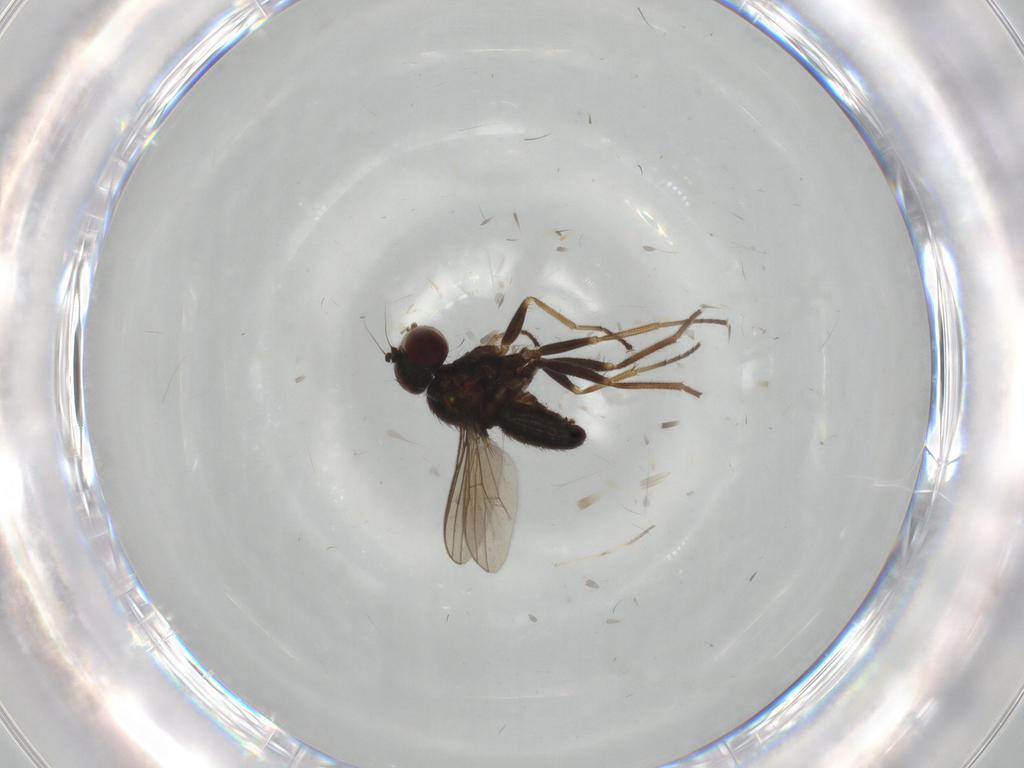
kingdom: Animalia
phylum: Arthropoda
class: Insecta
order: Diptera
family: Dolichopodidae
